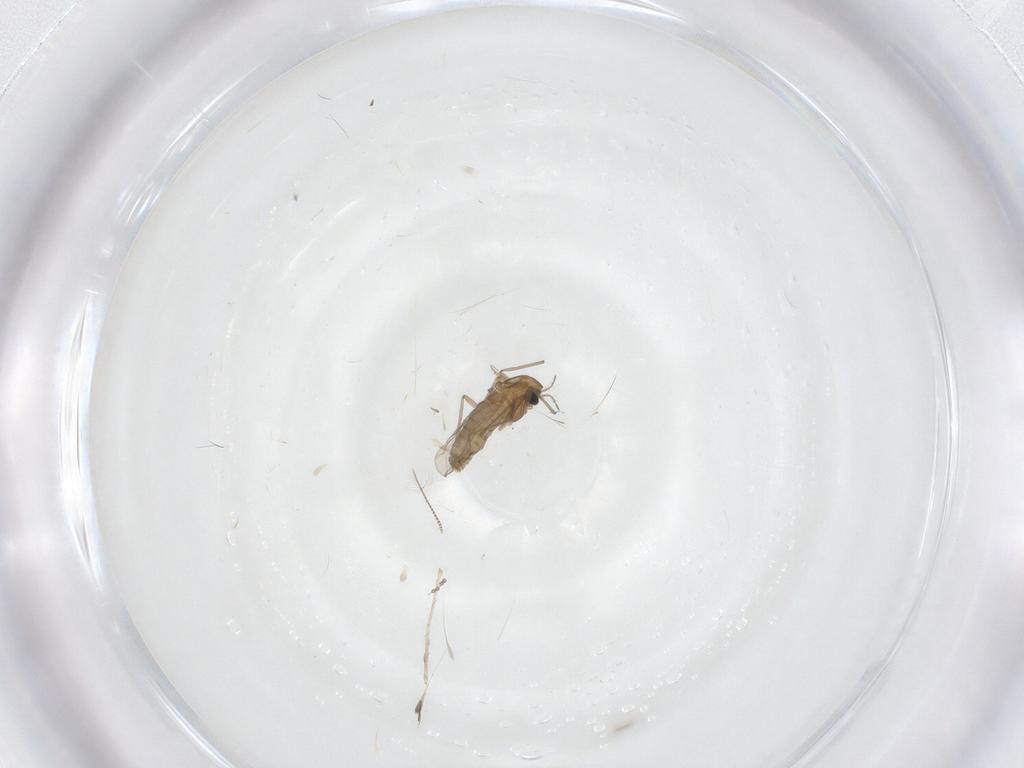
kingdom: Animalia
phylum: Arthropoda
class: Insecta
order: Diptera
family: Chironomidae
